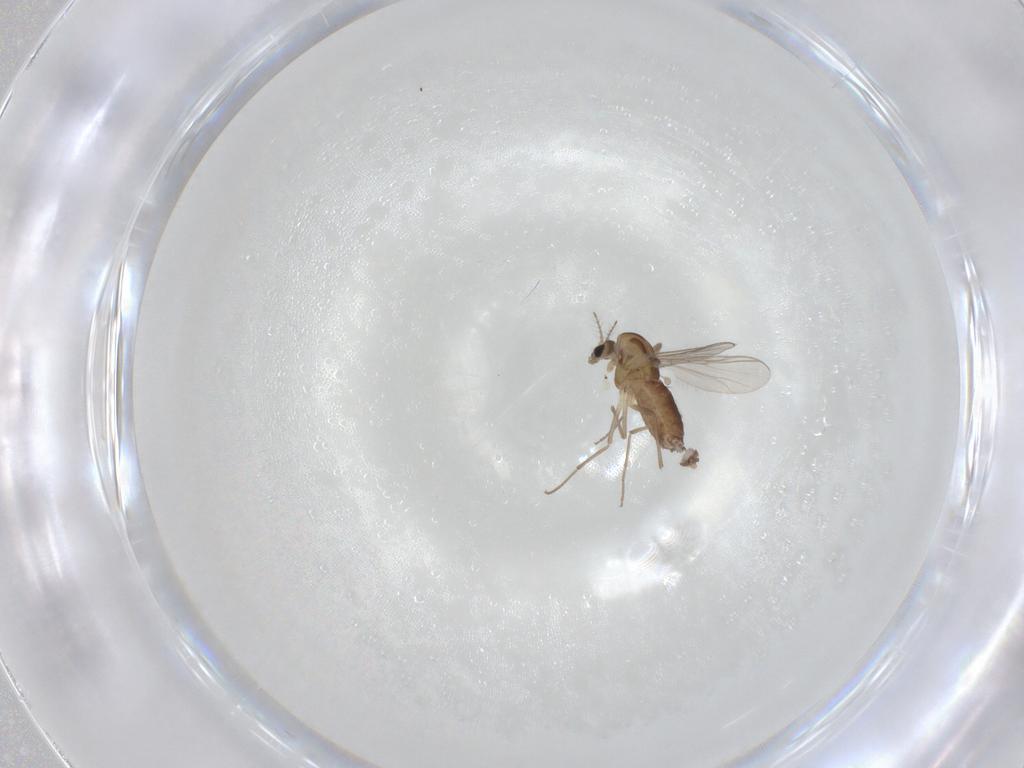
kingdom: Animalia
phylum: Arthropoda
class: Insecta
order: Diptera
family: Chironomidae
